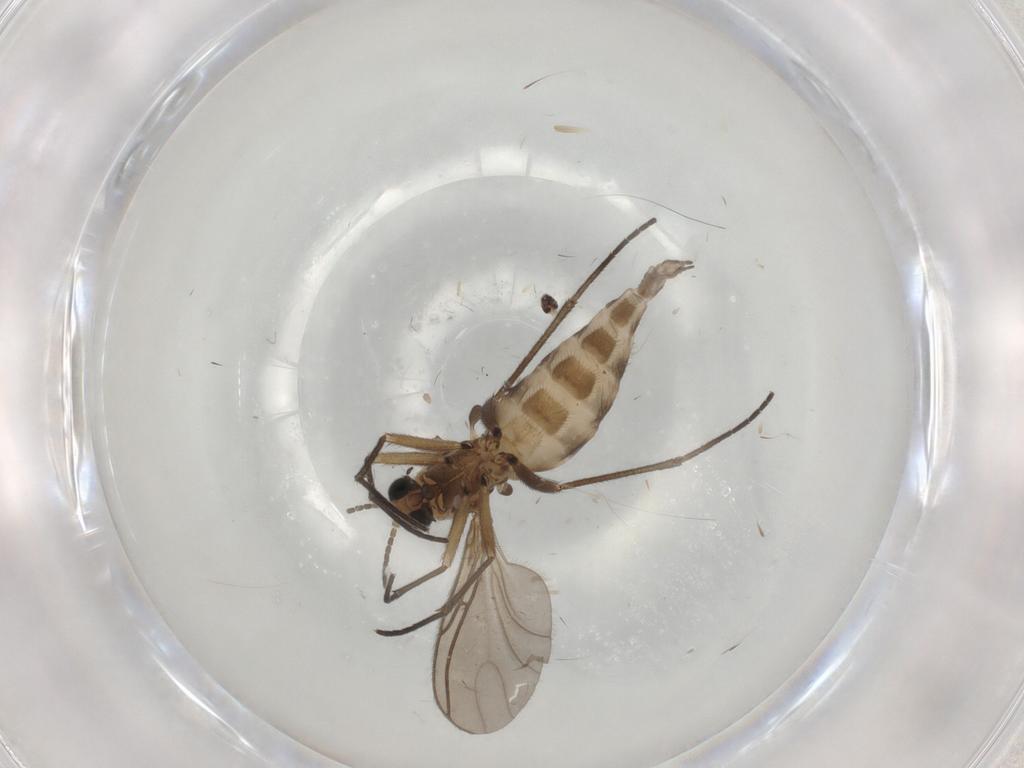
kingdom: Animalia
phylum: Arthropoda
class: Insecta
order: Diptera
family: Sciaridae
